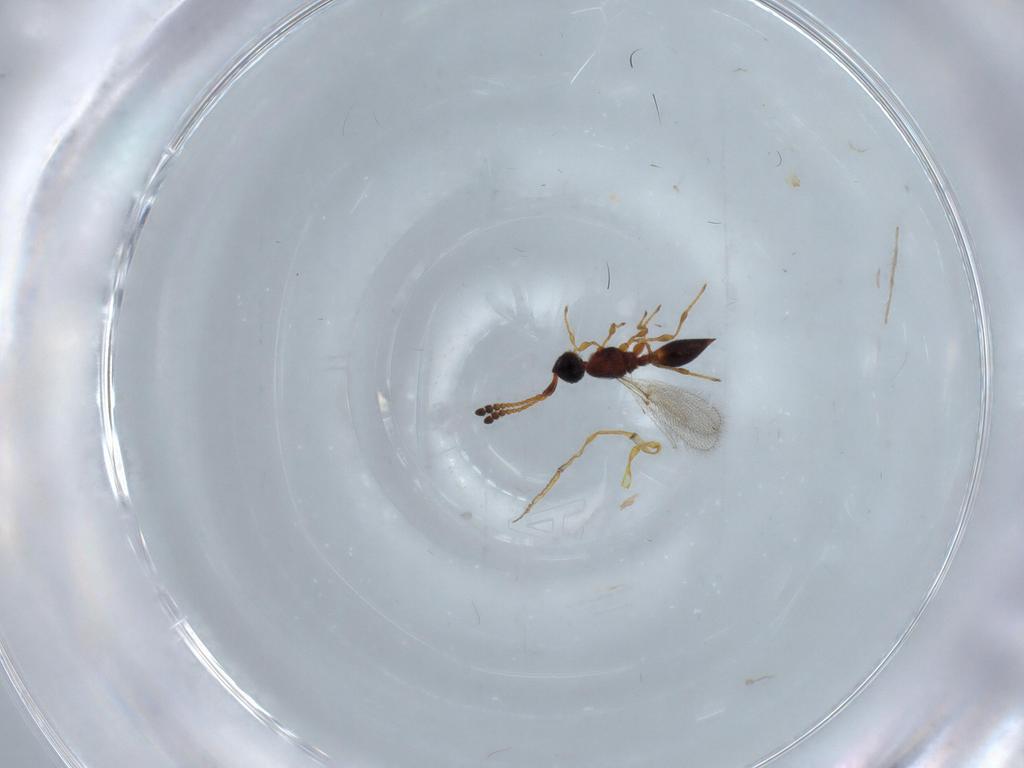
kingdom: Animalia
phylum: Arthropoda
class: Insecta
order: Hymenoptera
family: Diapriidae
